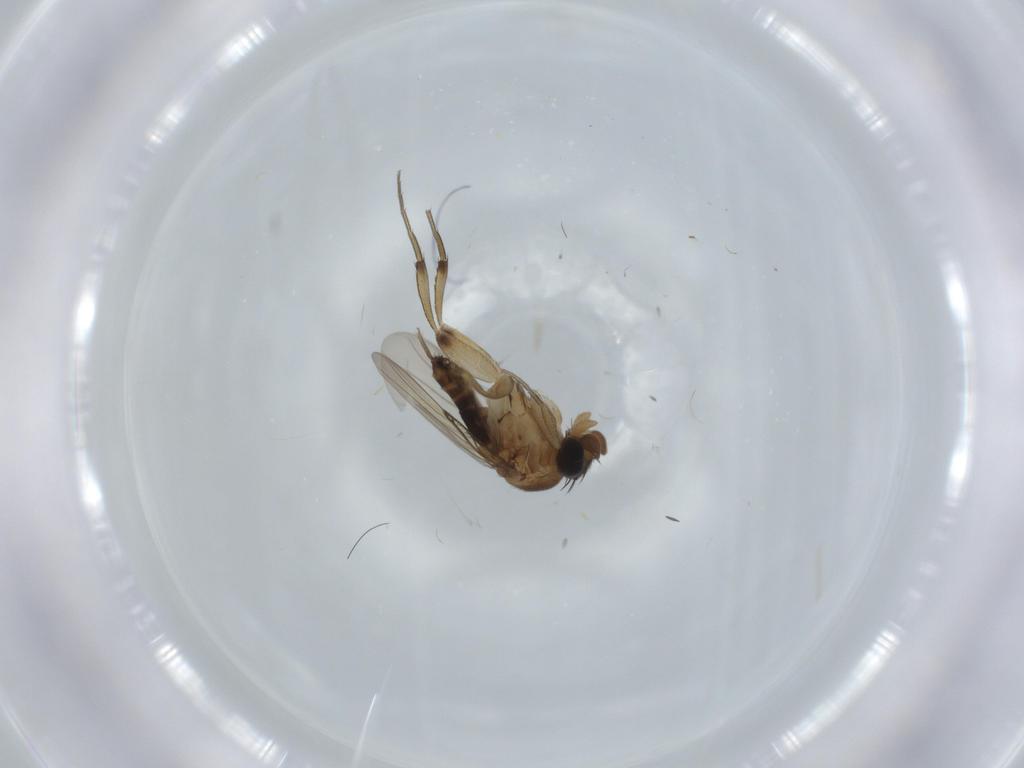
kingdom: Animalia
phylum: Arthropoda
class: Insecta
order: Diptera
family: Phoridae
